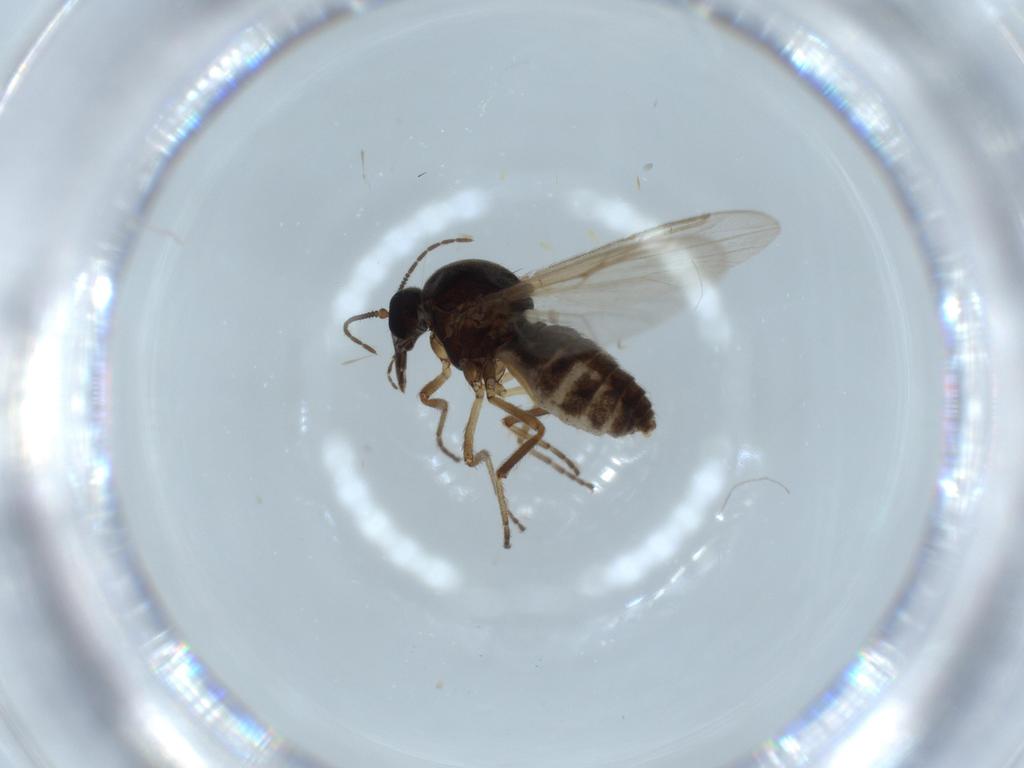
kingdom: Animalia
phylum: Arthropoda
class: Insecta
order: Diptera
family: Ceratopogonidae
